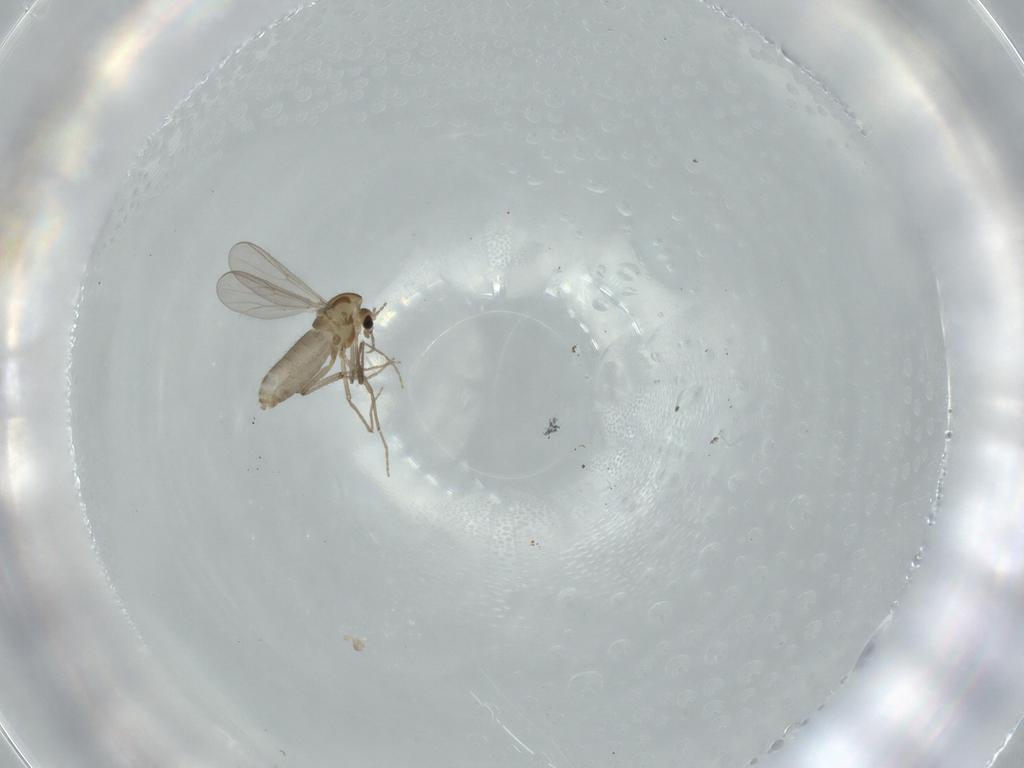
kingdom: Animalia
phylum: Arthropoda
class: Insecta
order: Diptera
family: Chironomidae
